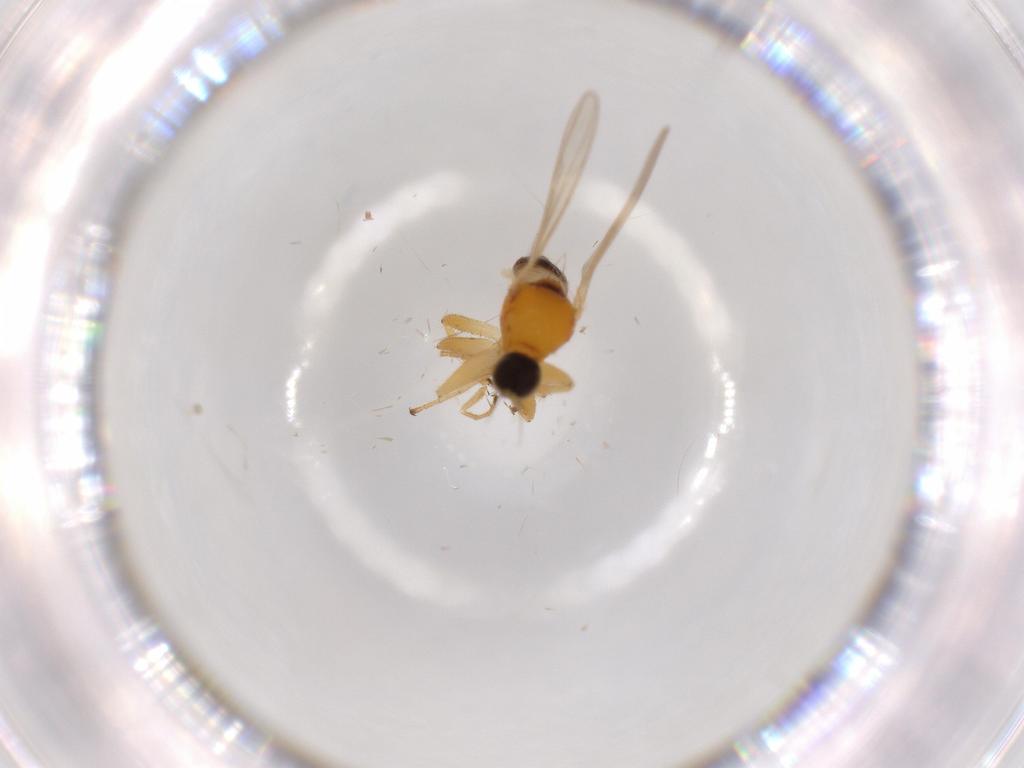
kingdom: Animalia
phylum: Arthropoda
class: Insecta
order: Diptera
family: Hybotidae
